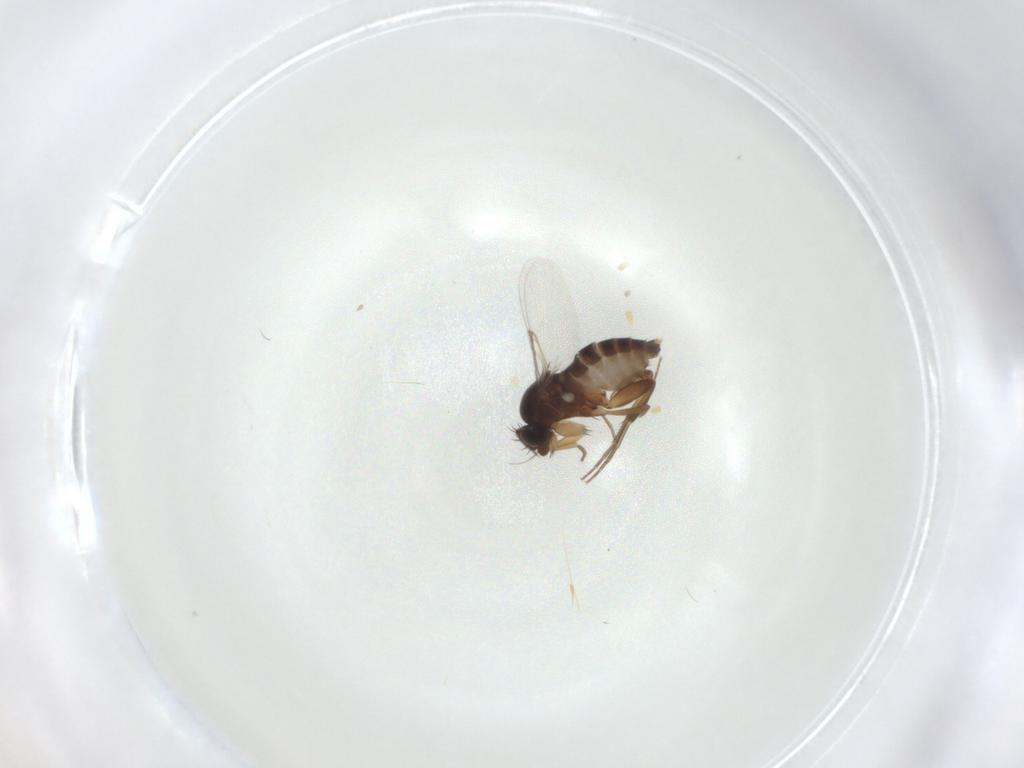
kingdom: Animalia
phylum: Arthropoda
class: Insecta
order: Diptera
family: Phoridae
